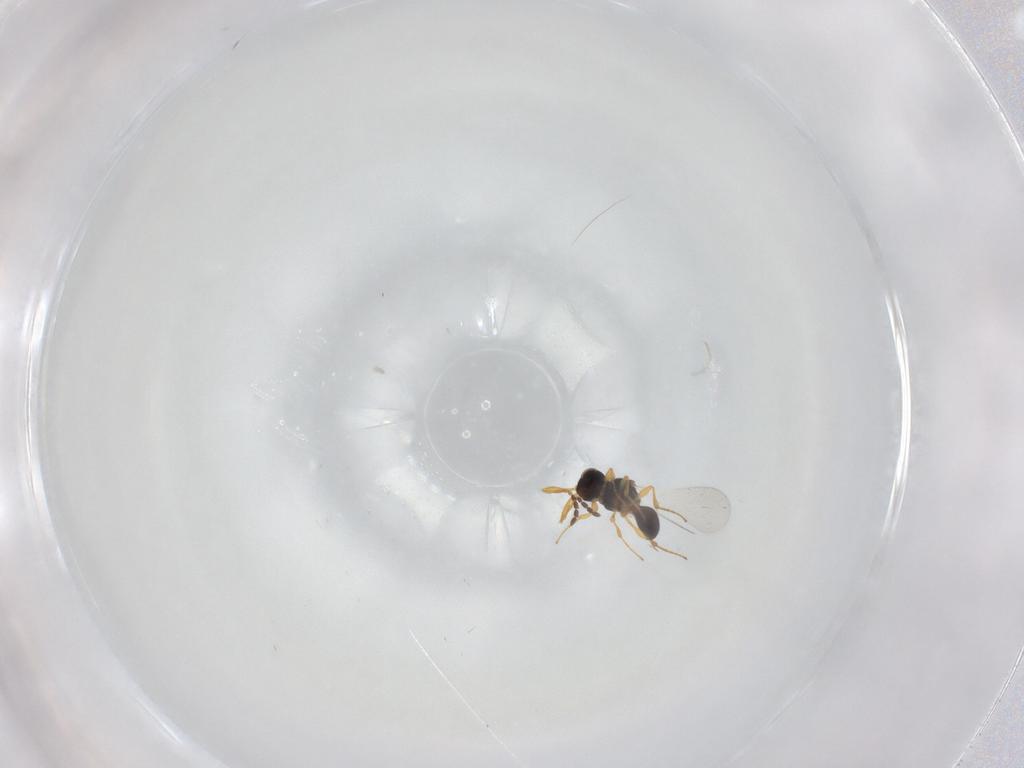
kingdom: Animalia
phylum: Arthropoda
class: Insecta
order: Hymenoptera
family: Platygastridae
